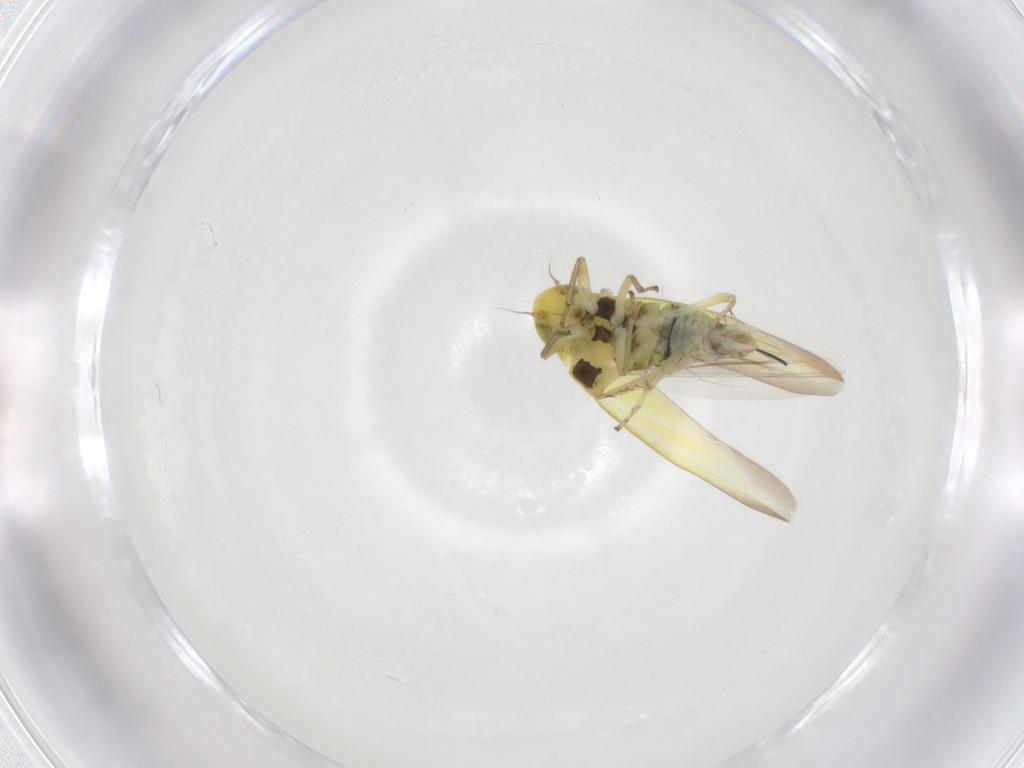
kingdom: Animalia
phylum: Arthropoda
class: Insecta
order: Hemiptera
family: Cicadellidae
